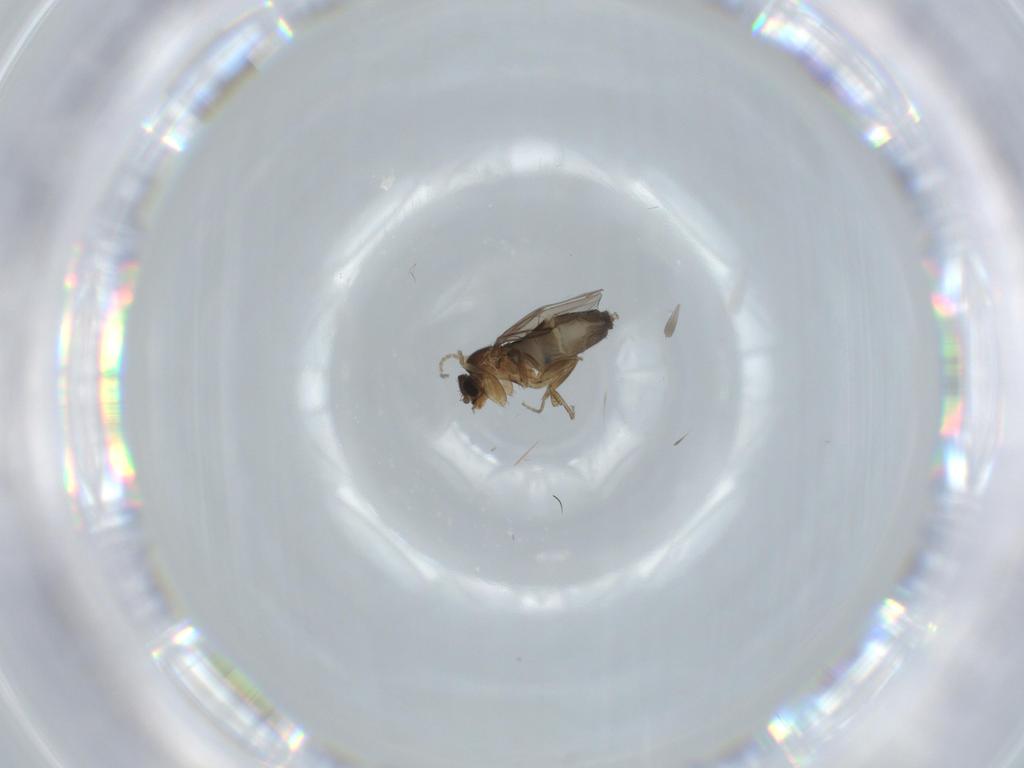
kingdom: Animalia
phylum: Arthropoda
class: Insecta
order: Diptera
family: Phoridae
